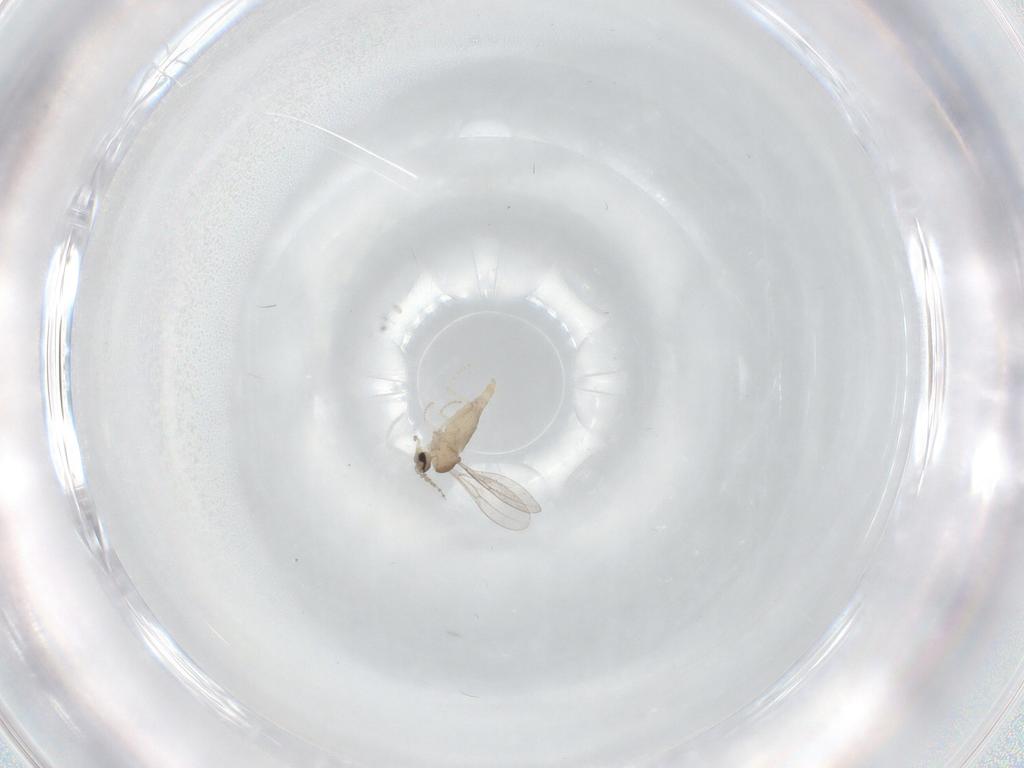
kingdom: Animalia
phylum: Arthropoda
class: Insecta
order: Diptera
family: Cecidomyiidae
